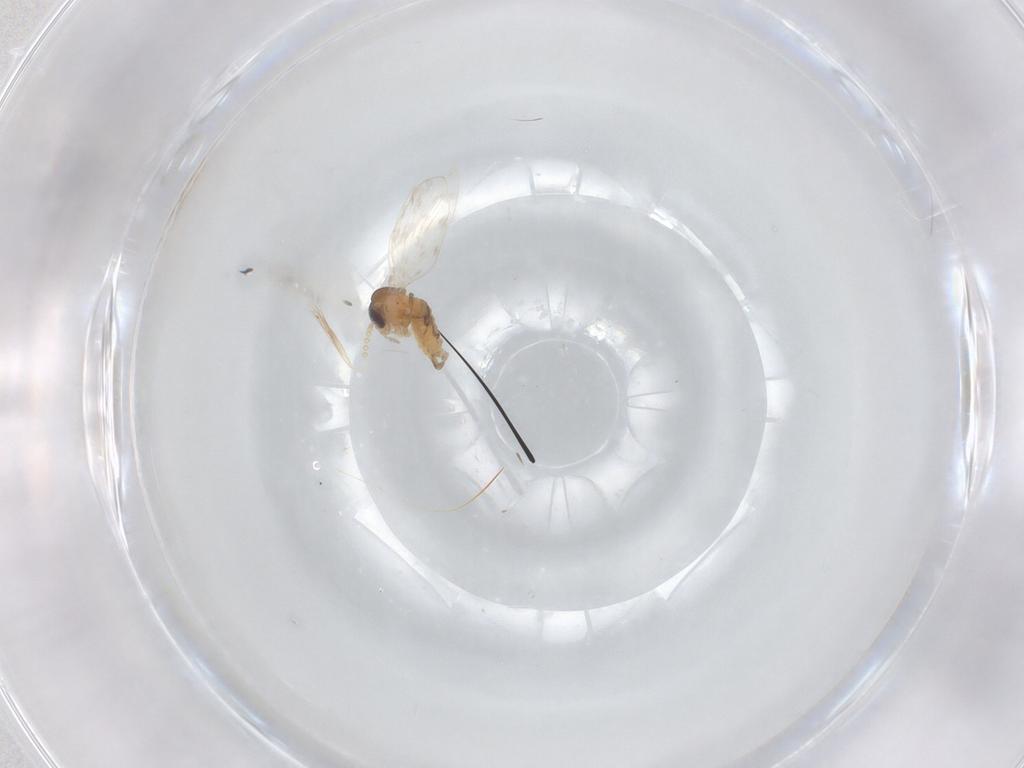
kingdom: Animalia
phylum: Arthropoda
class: Insecta
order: Diptera
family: Psychodidae
